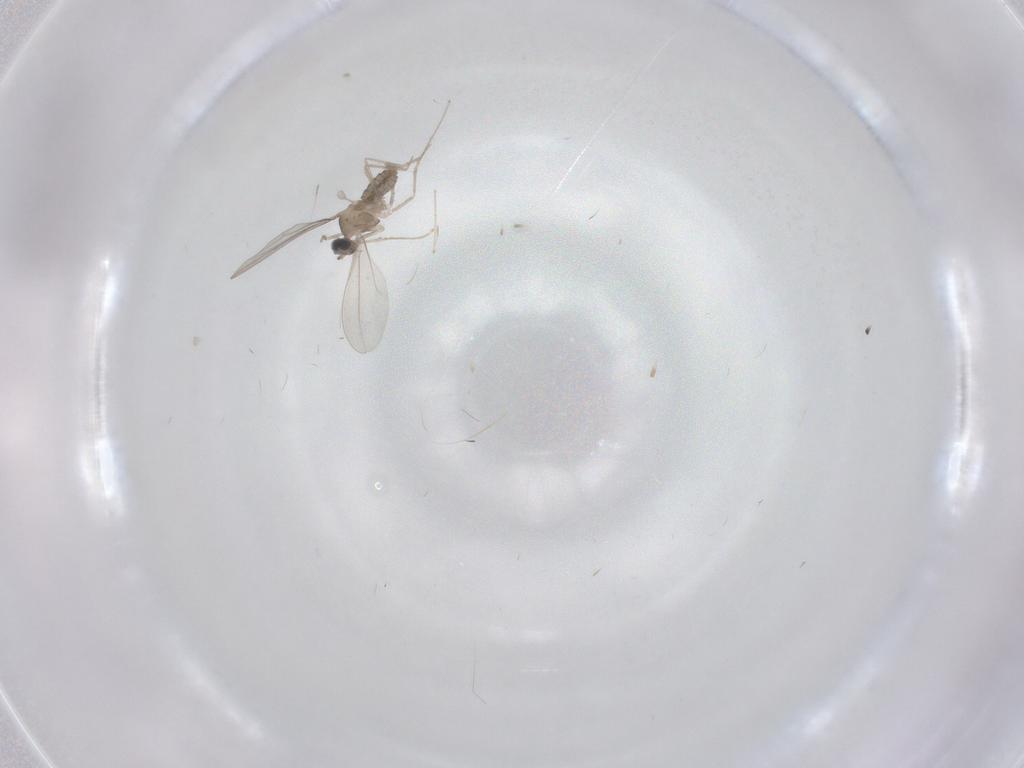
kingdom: Animalia
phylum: Arthropoda
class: Insecta
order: Diptera
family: Cecidomyiidae
